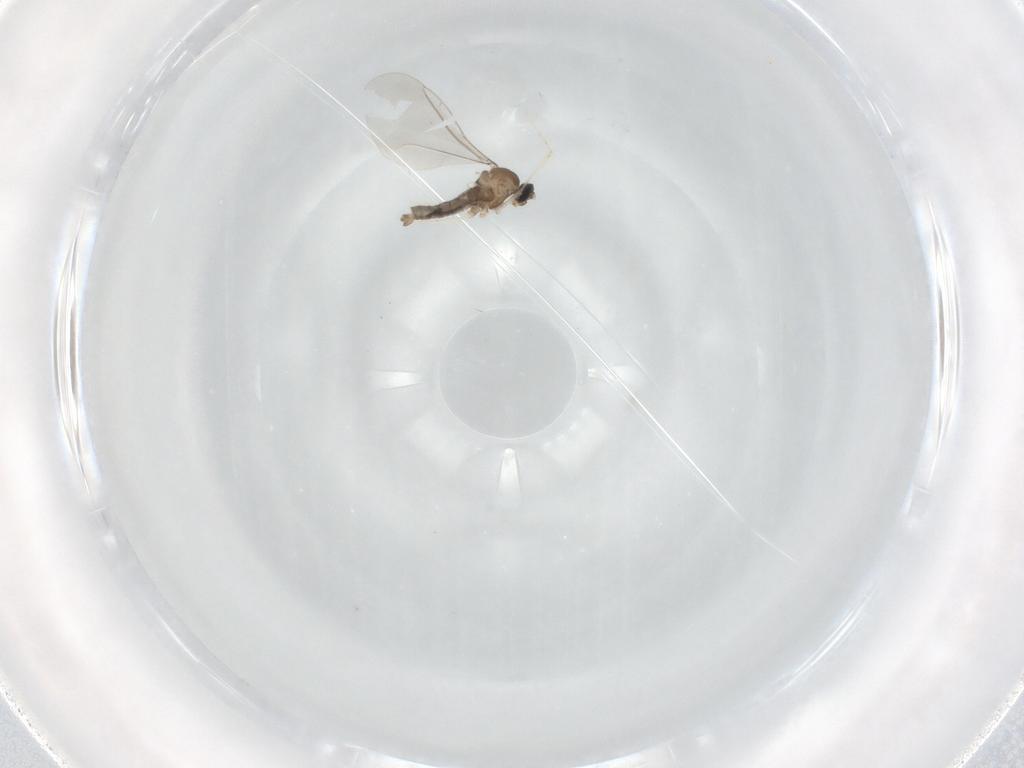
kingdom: Animalia
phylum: Arthropoda
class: Insecta
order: Diptera
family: Cecidomyiidae
